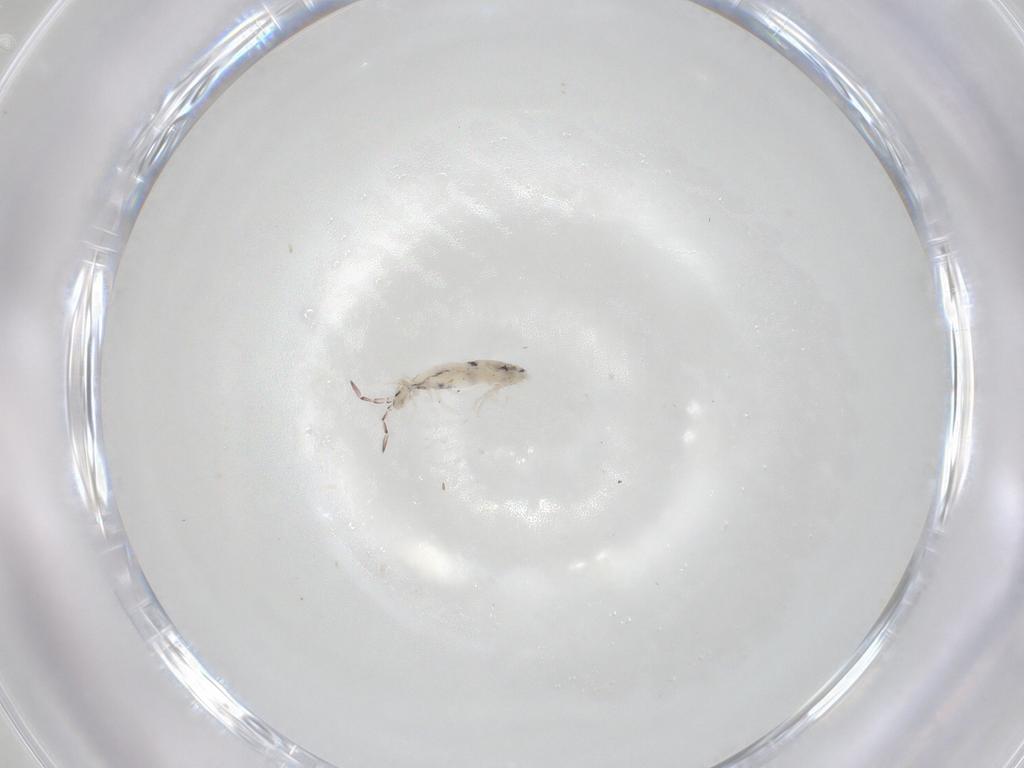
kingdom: Animalia
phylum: Arthropoda
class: Collembola
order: Entomobryomorpha
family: Entomobryidae
